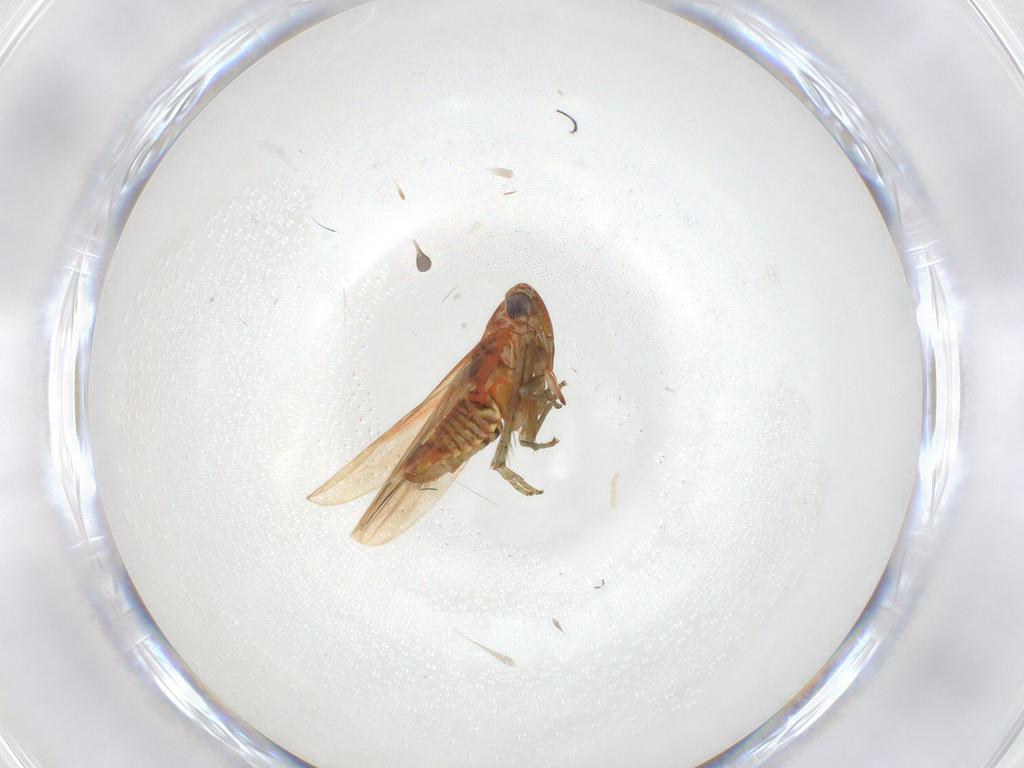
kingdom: Animalia
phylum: Arthropoda
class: Insecta
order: Hemiptera
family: Cicadellidae
